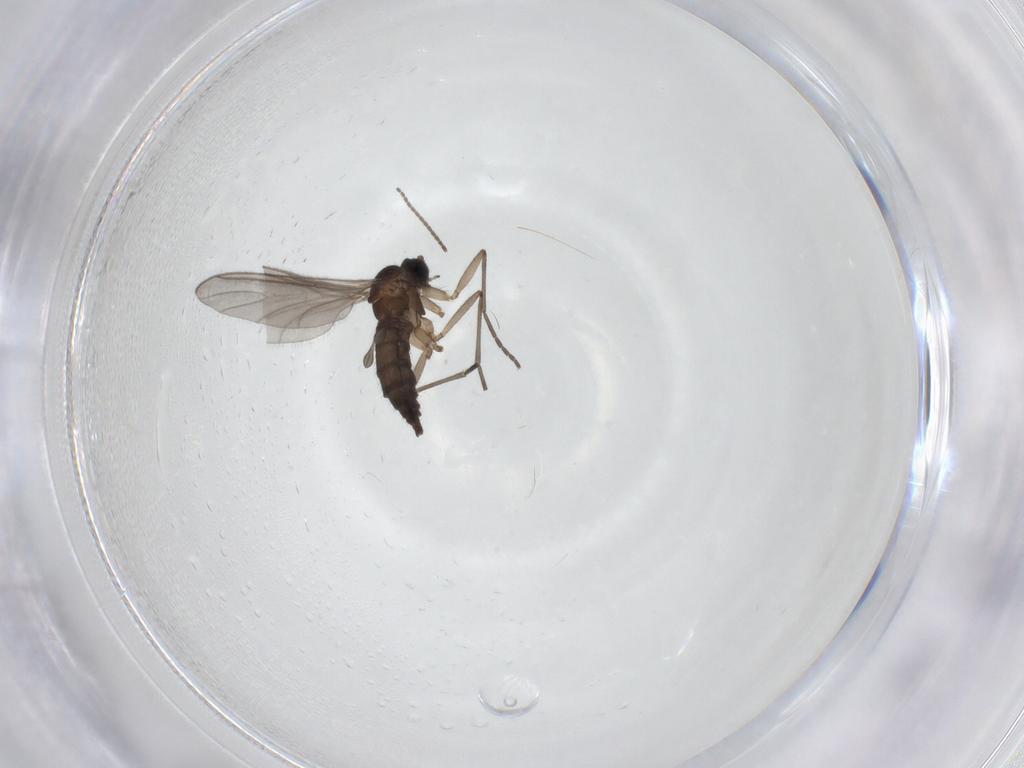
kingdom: Animalia
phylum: Arthropoda
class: Insecta
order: Diptera
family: Sciaridae
